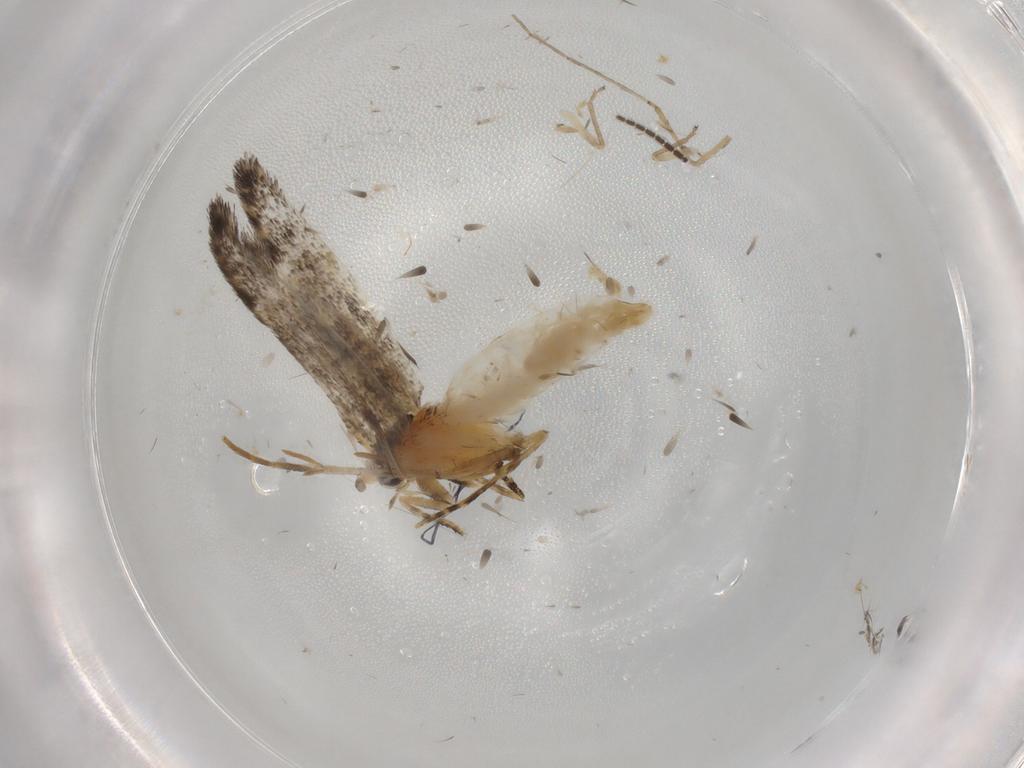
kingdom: Animalia
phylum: Arthropoda
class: Insecta
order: Lepidoptera
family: Tineidae
